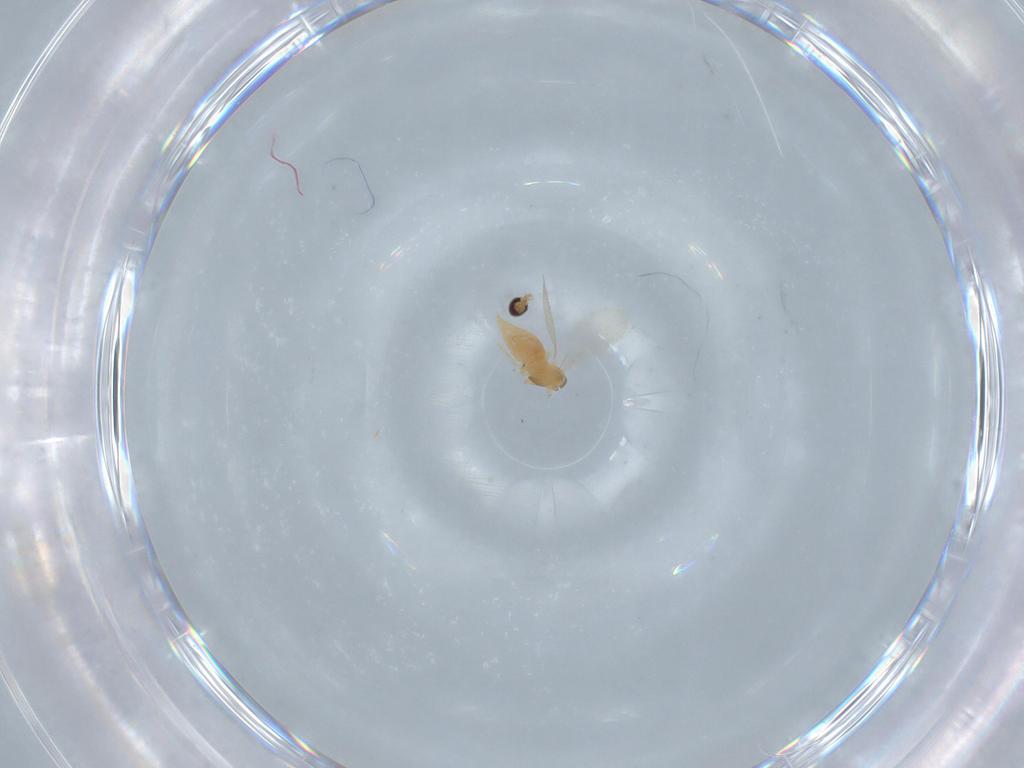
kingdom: Animalia
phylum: Arthropoda
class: Insecta
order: Diptera
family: Cecidomyiidae
